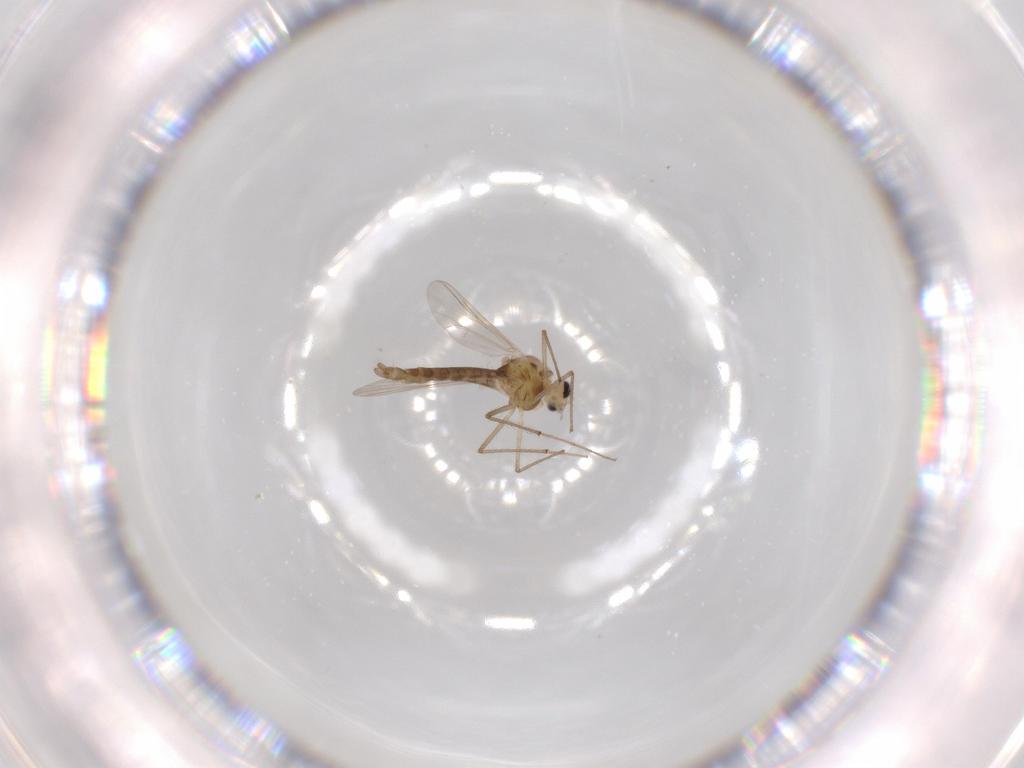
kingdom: Animalia
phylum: Arthropoda
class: Insecta
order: Diptera
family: Chironomidae
